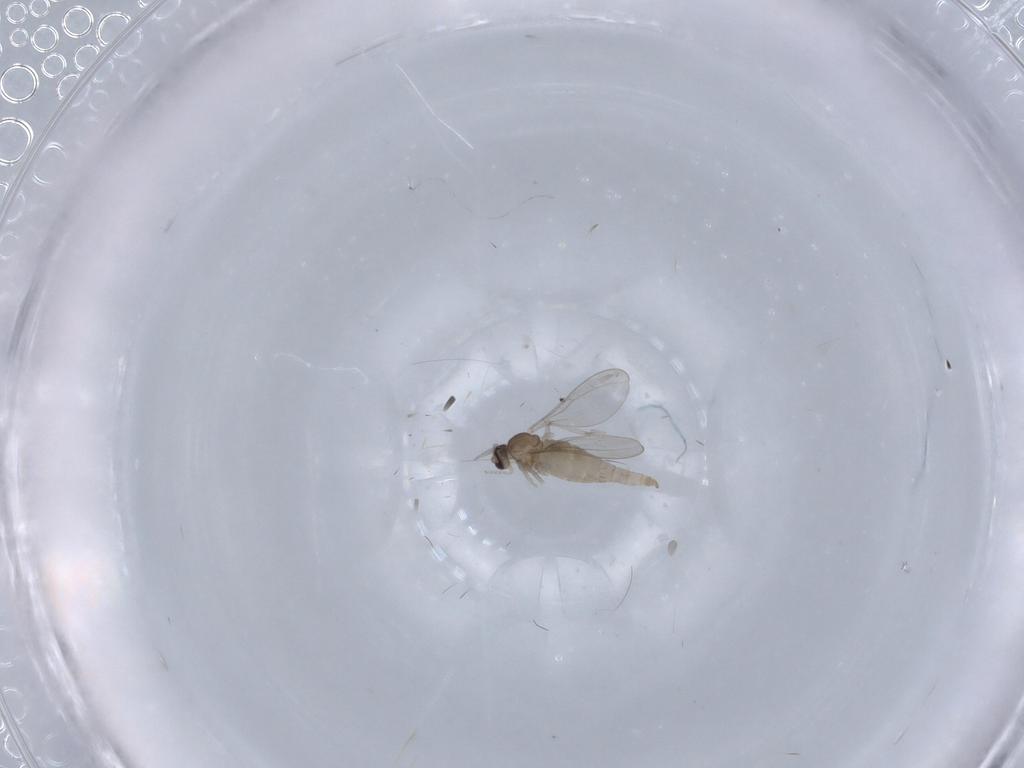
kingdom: Animalia
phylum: Arthropoda
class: Insecta
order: Diptera
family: Cecidomyiidae
